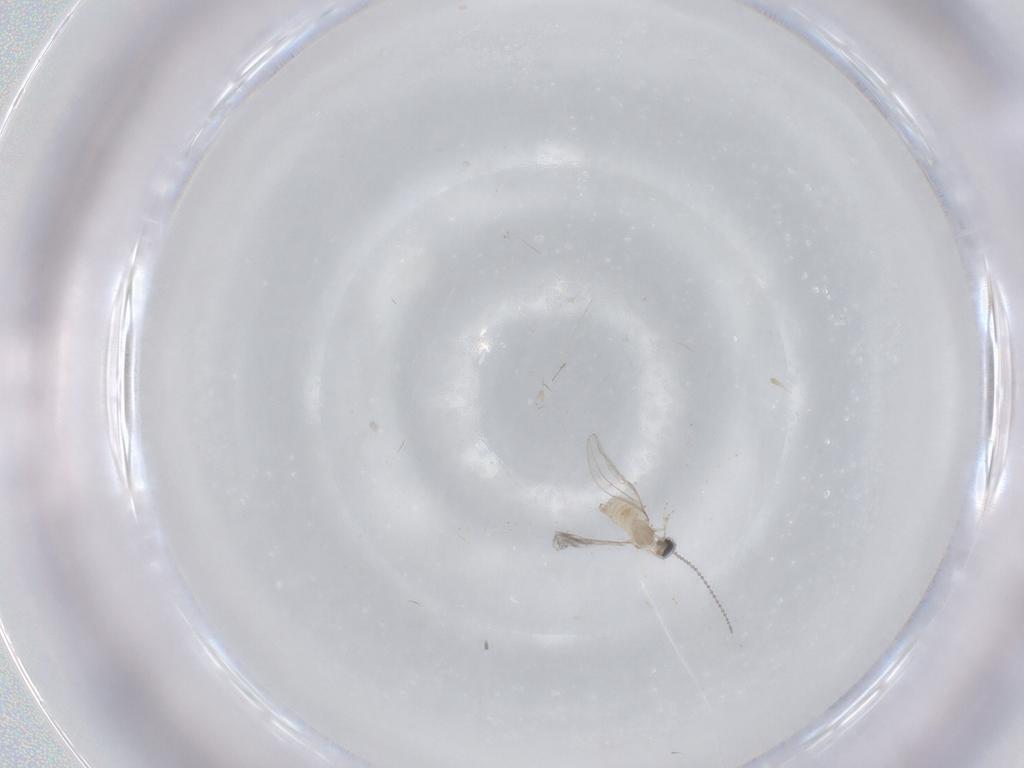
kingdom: Animalia
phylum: Arthropoda
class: Insecta
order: Diptera
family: Cecidomyiidae
